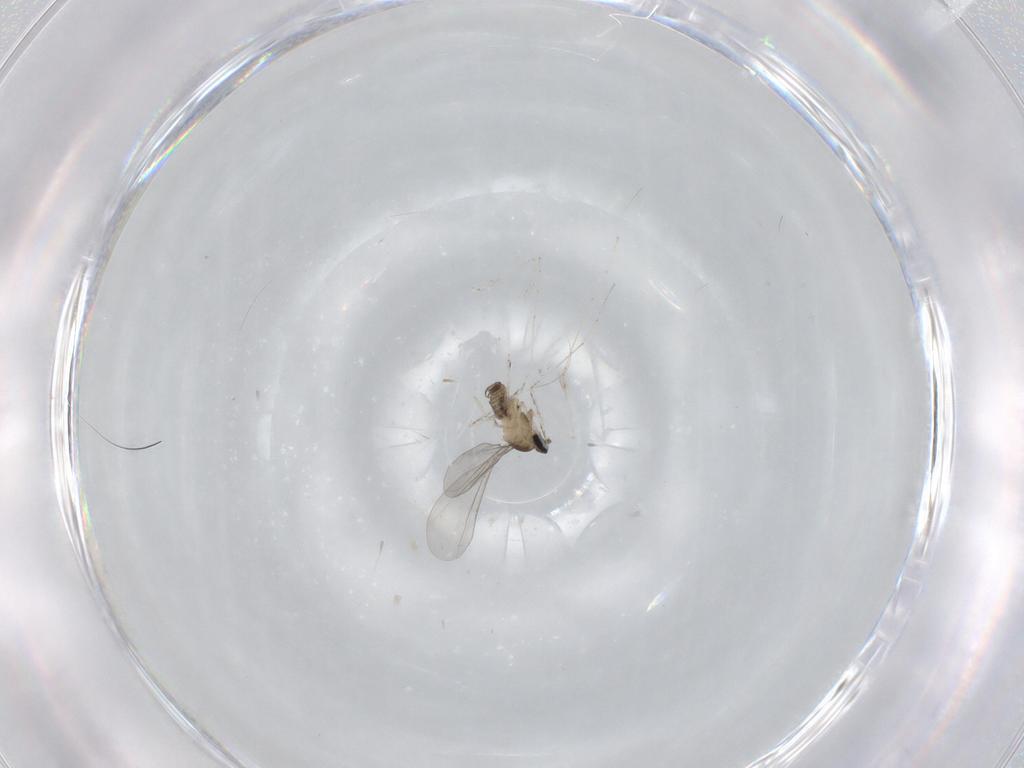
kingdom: Animalia
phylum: Arthropoda
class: Insecta
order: Diptera
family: Cecidomyiidae
